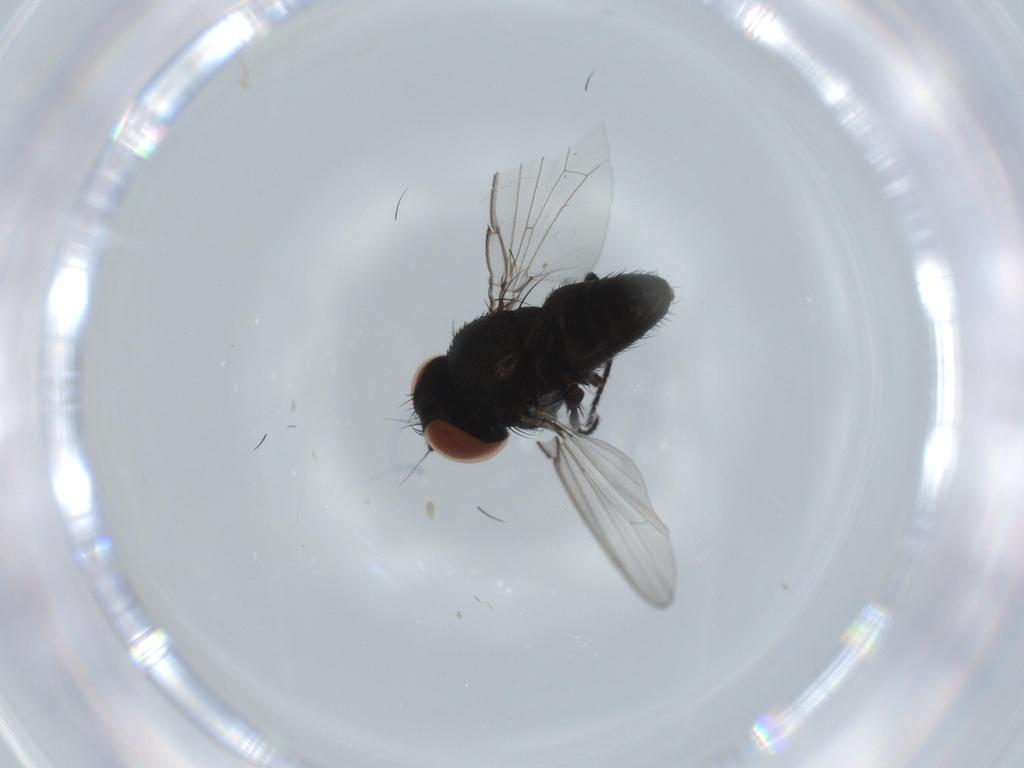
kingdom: Animalia
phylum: Arthropoda
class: Insecta
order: Diptera
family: Milichiidae
